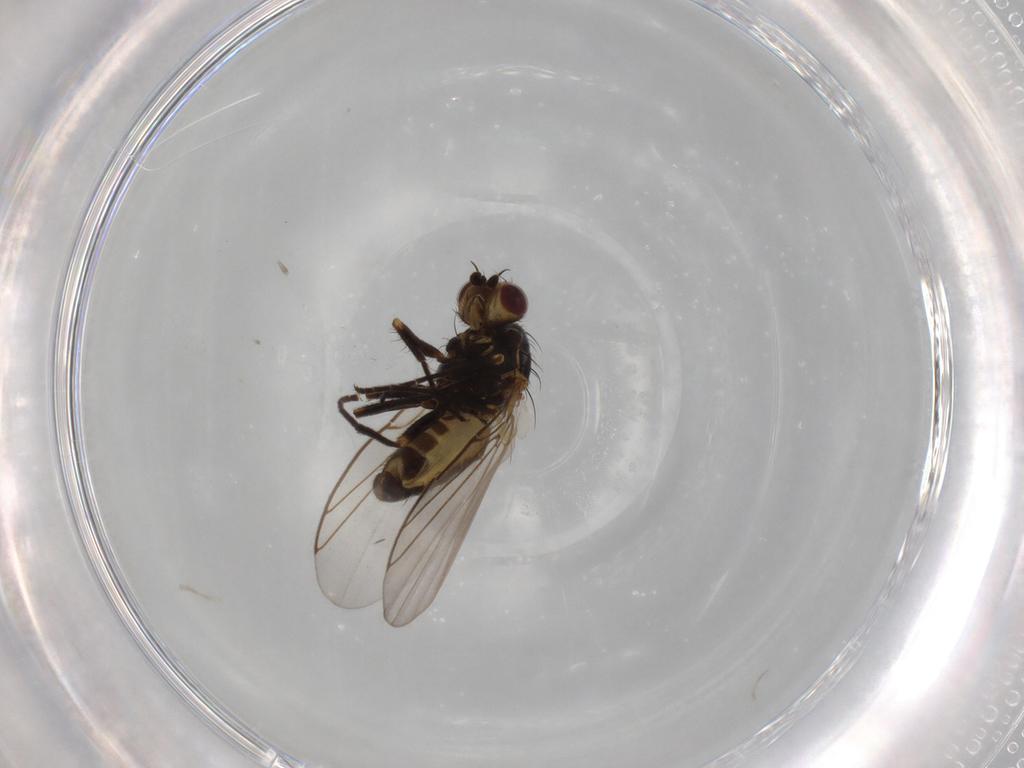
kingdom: Animalia
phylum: Arthropoda
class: Insecta
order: Diptera
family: Agromyzidae
